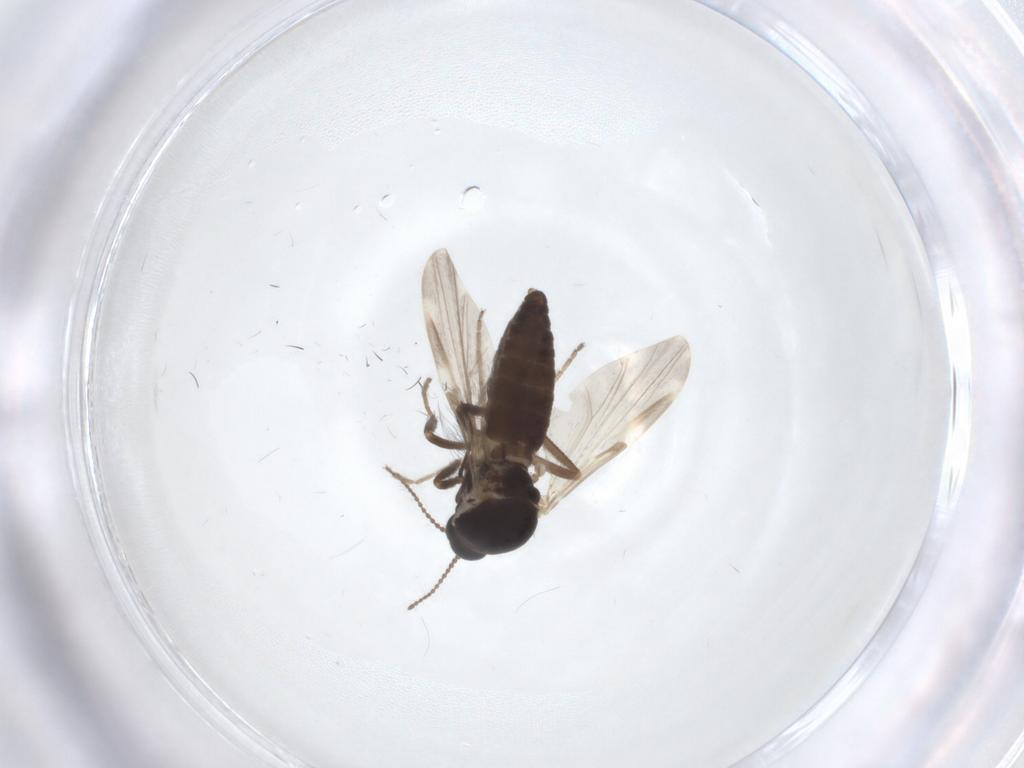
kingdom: Animalia
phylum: Arthropoda
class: Insecta
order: Diptera
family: Ceratopogonidae
